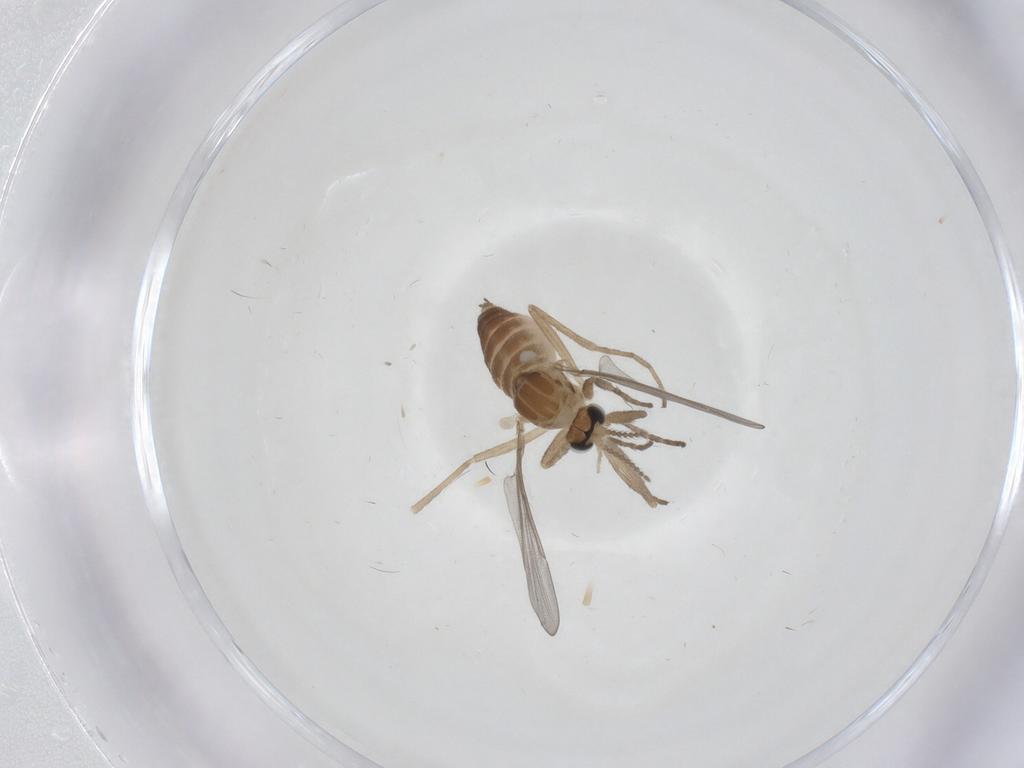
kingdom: Animalia
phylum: Arthropoda
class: Insecta
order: Diptera
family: Cecidomyiidae
